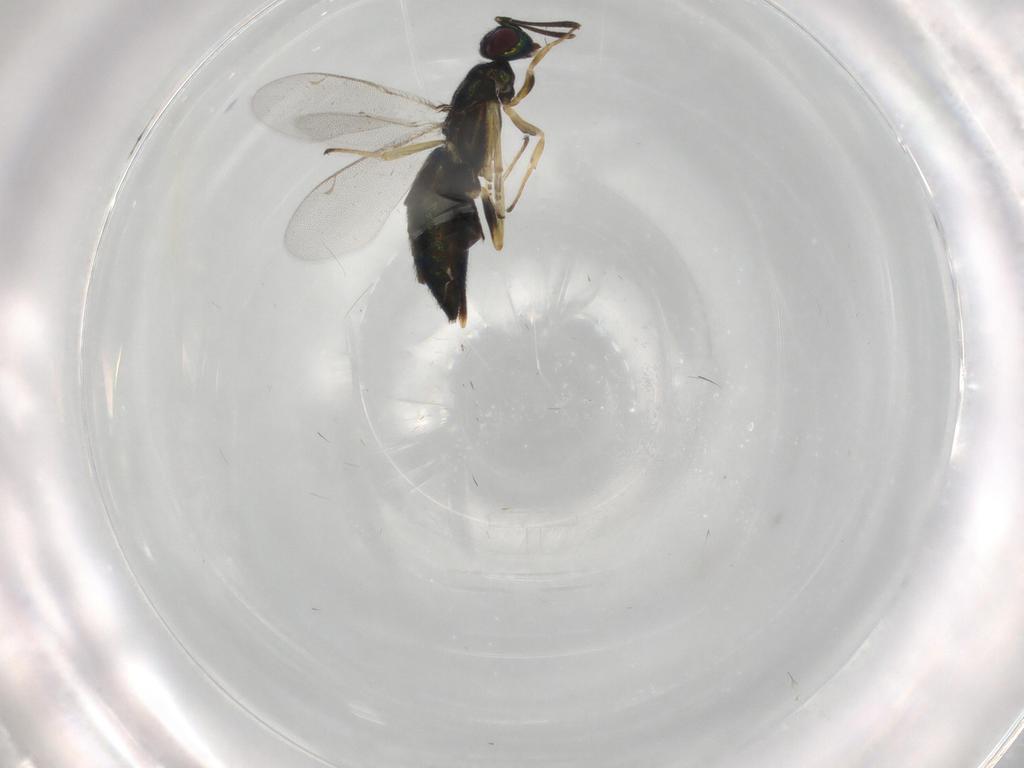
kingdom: Animalia
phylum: Arthropoda
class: Insecta
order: Hymenoptera
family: Eupelmidae
